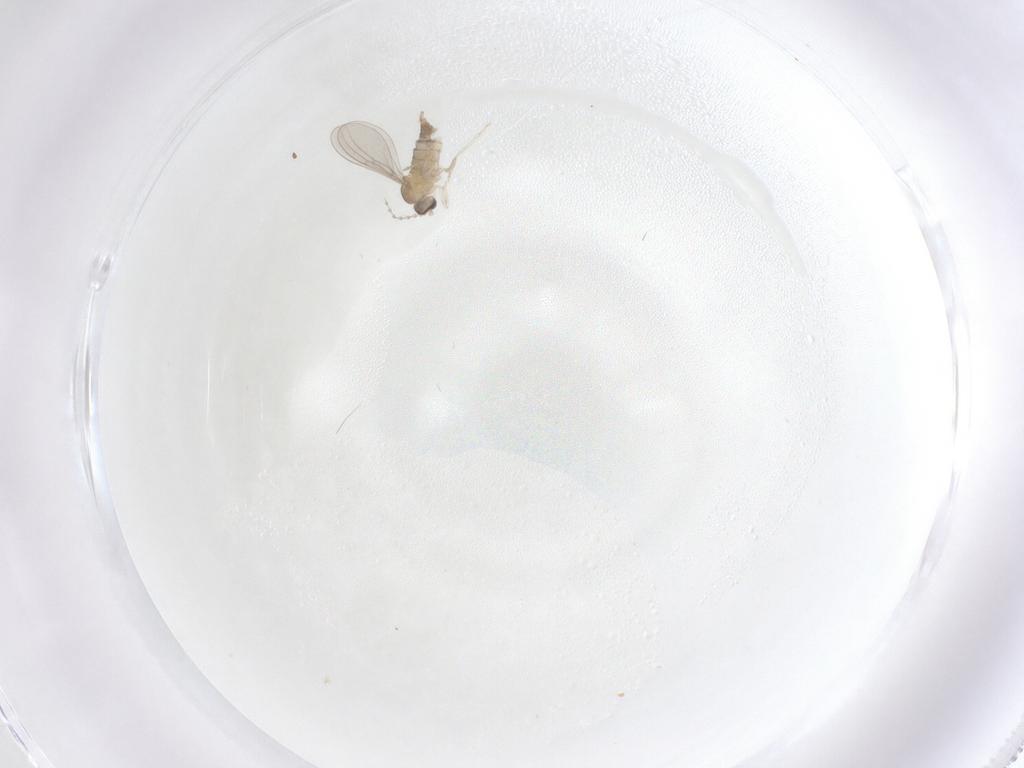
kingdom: Animalia
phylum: Arthropoda
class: Insecta
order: Diptera
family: Cecidomyiidae
